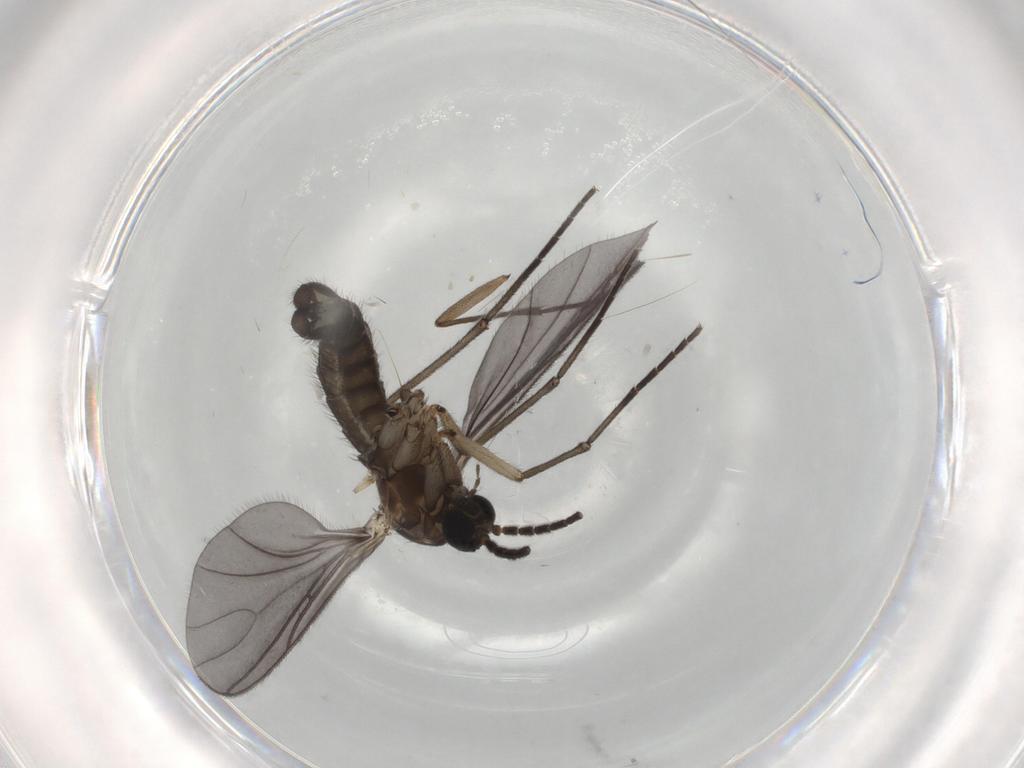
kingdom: Animalia
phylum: Arthropoda
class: Insecta
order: Diptera
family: Sciaridae
